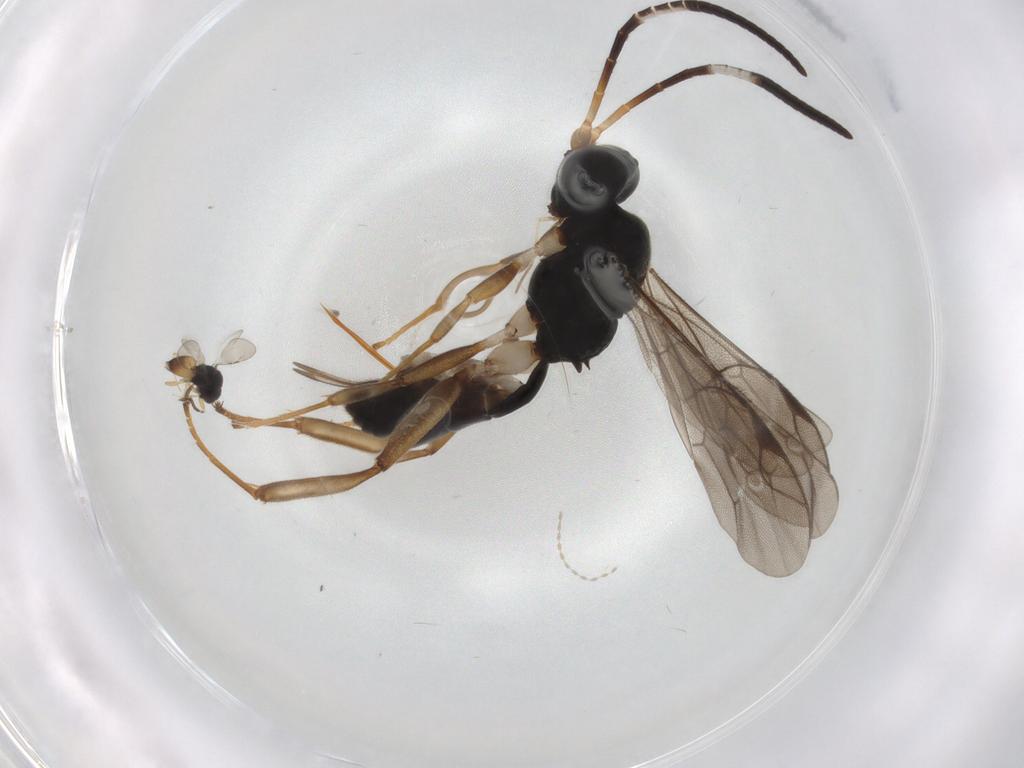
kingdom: Animalia
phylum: Arthropoda
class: Insecta
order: Hymenoptera
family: Ichneumonidae
